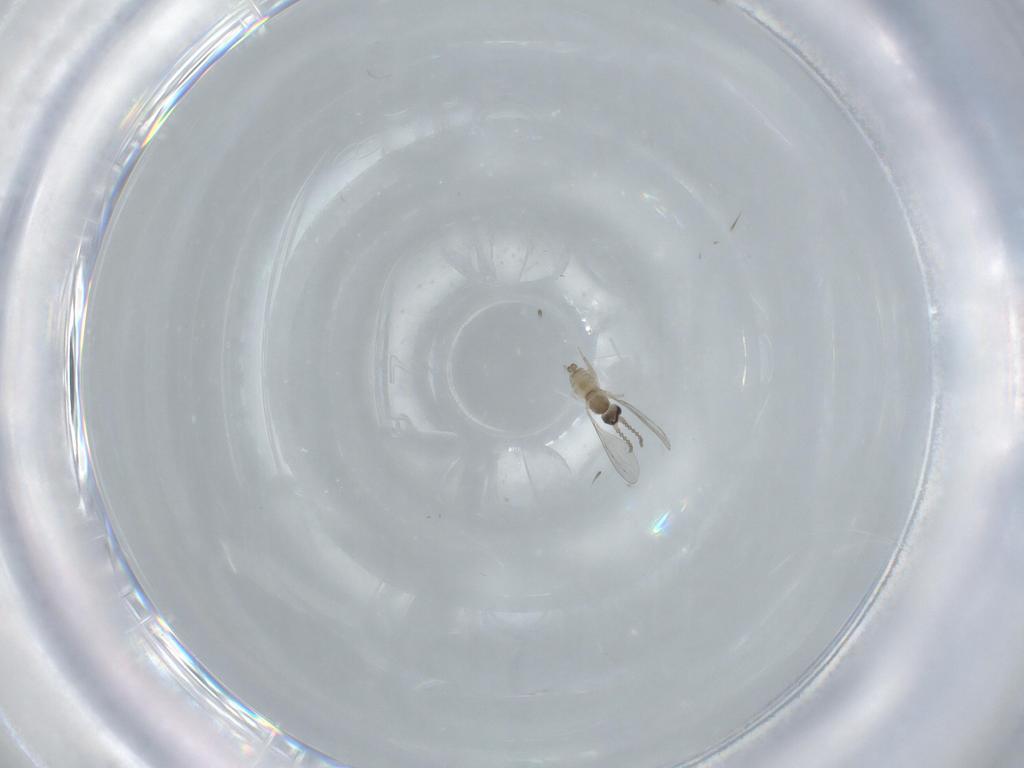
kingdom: Animalia
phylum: Arthropoda
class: Insecta
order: Diptera
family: Cecidomyiidae
